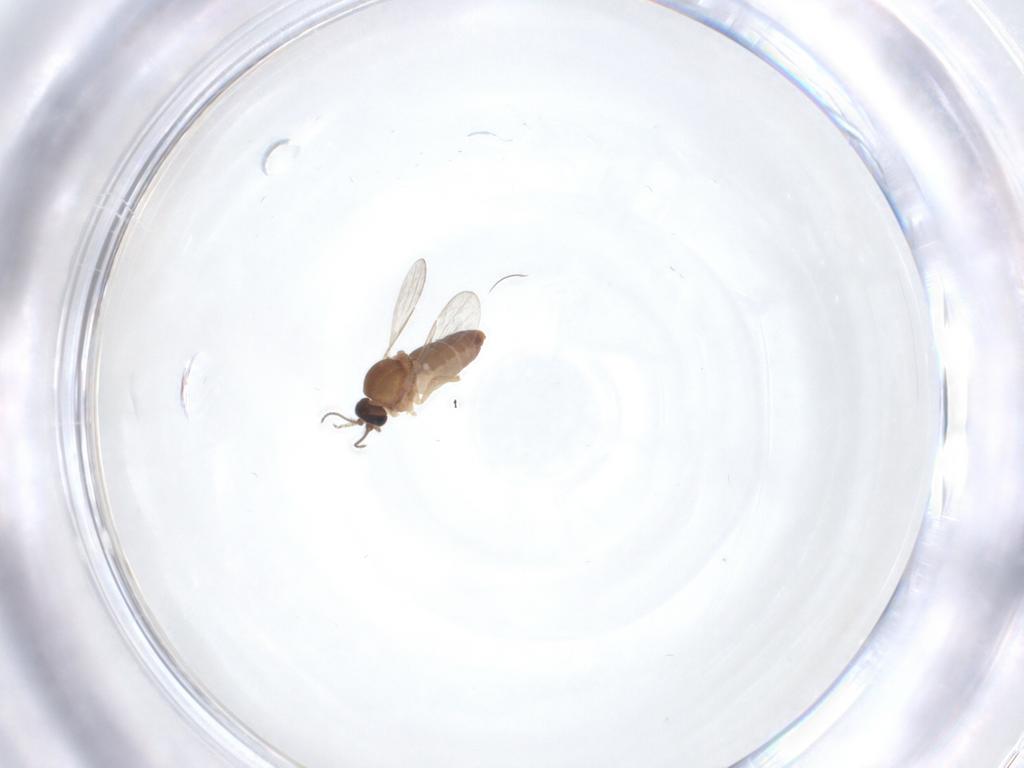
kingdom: Animalia
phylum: Arthropoda
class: Insecta
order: Diptera
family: Ceratopogonidae
